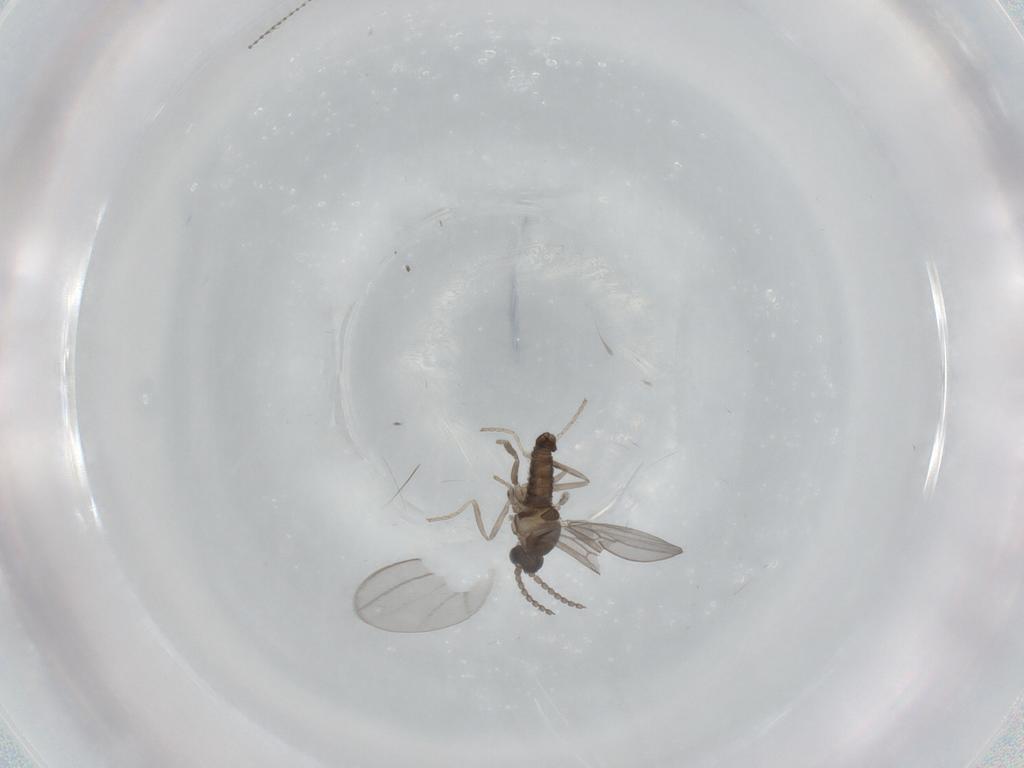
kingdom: Animalia
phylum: Arthropoda
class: Insecta
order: Diptera
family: Cecidomyiidae
